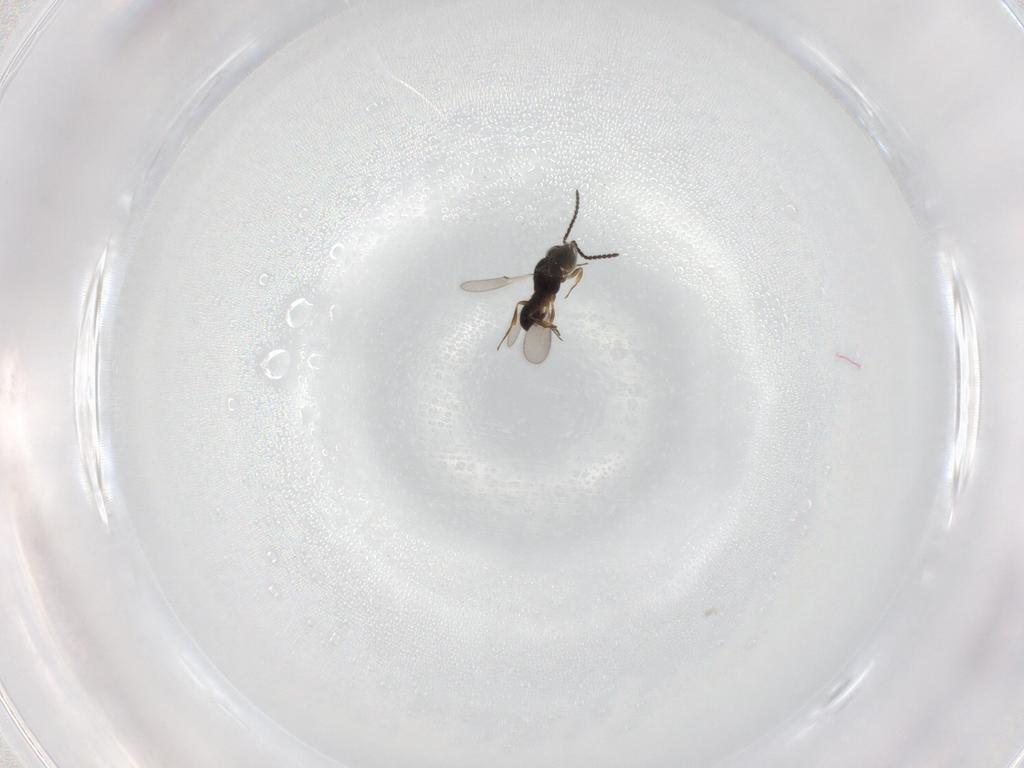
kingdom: Animalia
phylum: Arthropoda
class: Insecta
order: Hymenoptera
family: Scelionidae
